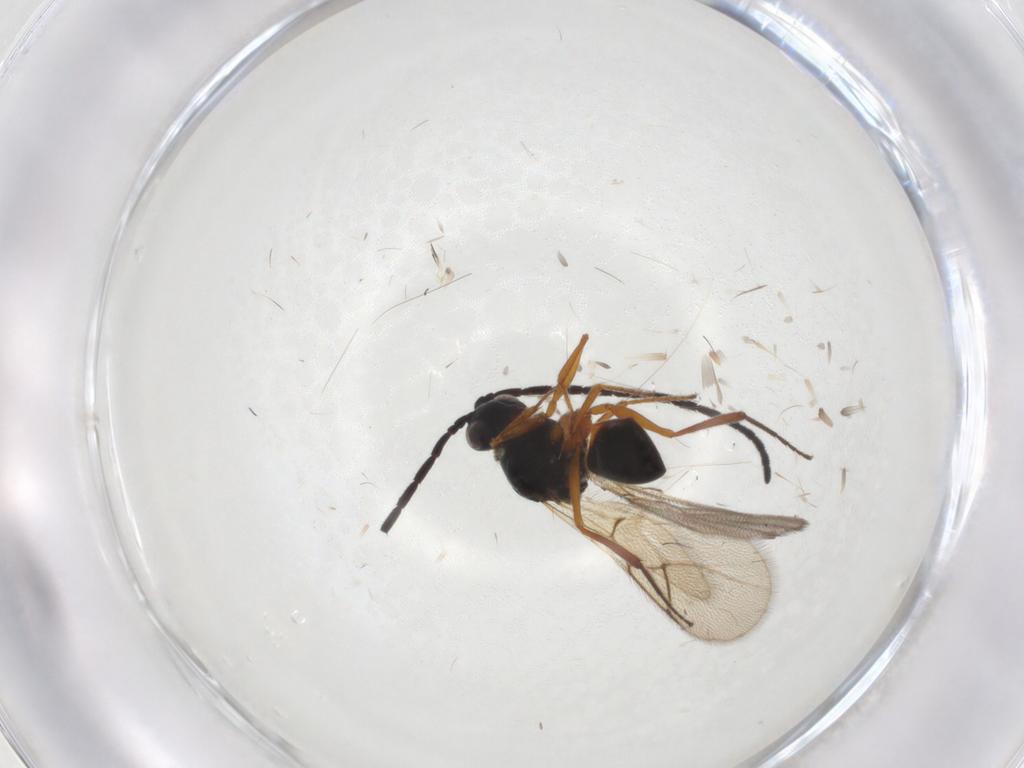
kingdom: Animalia
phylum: Arthropoda
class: Insecta
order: Hymenoptera
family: Figitidae
